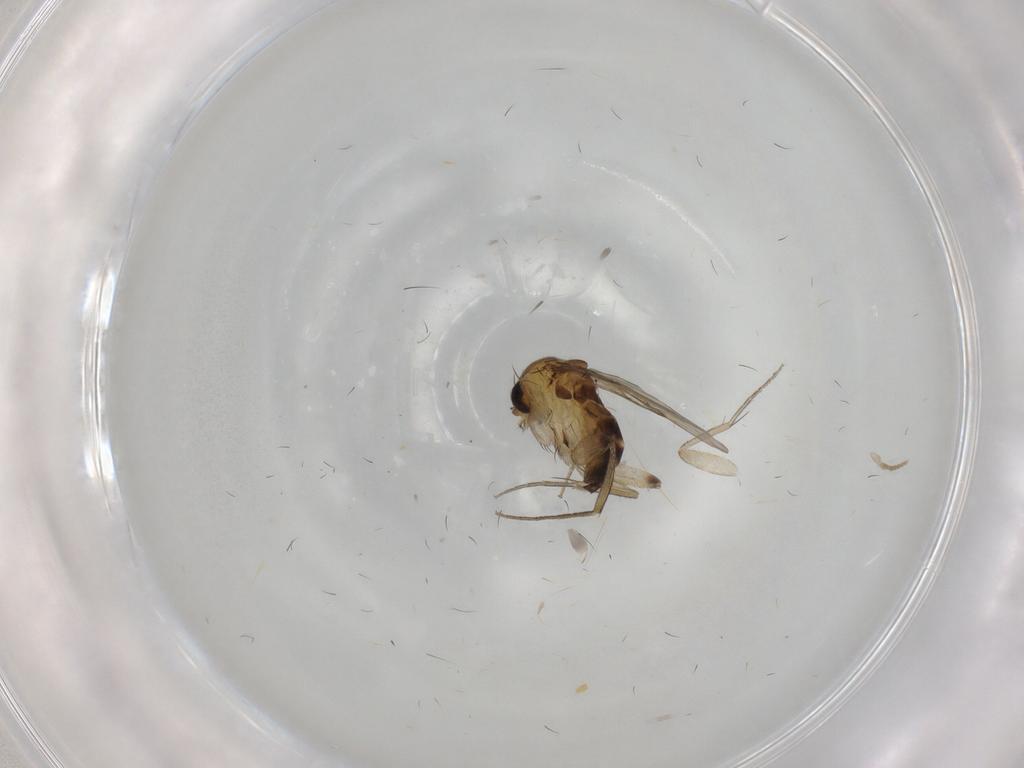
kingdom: Animalia
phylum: Arthropoda
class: Insecta
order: Diptera
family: Phoridae
